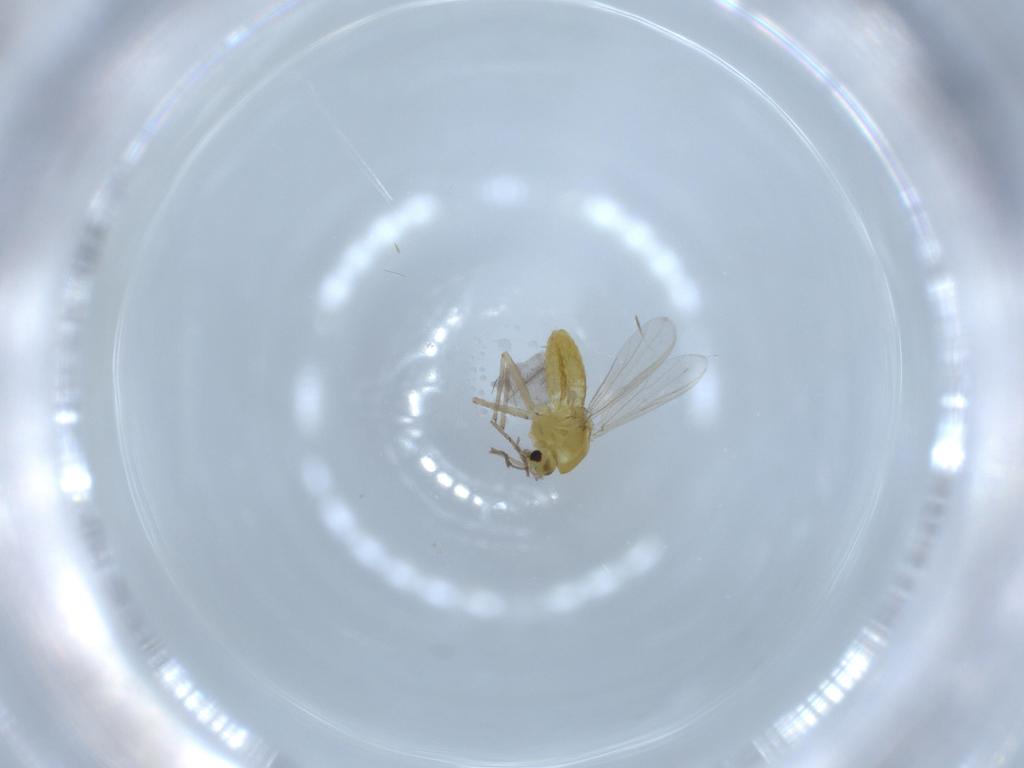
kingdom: Animalia
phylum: Arthropoda
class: Insecta
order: Diptera
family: Chironomidae
